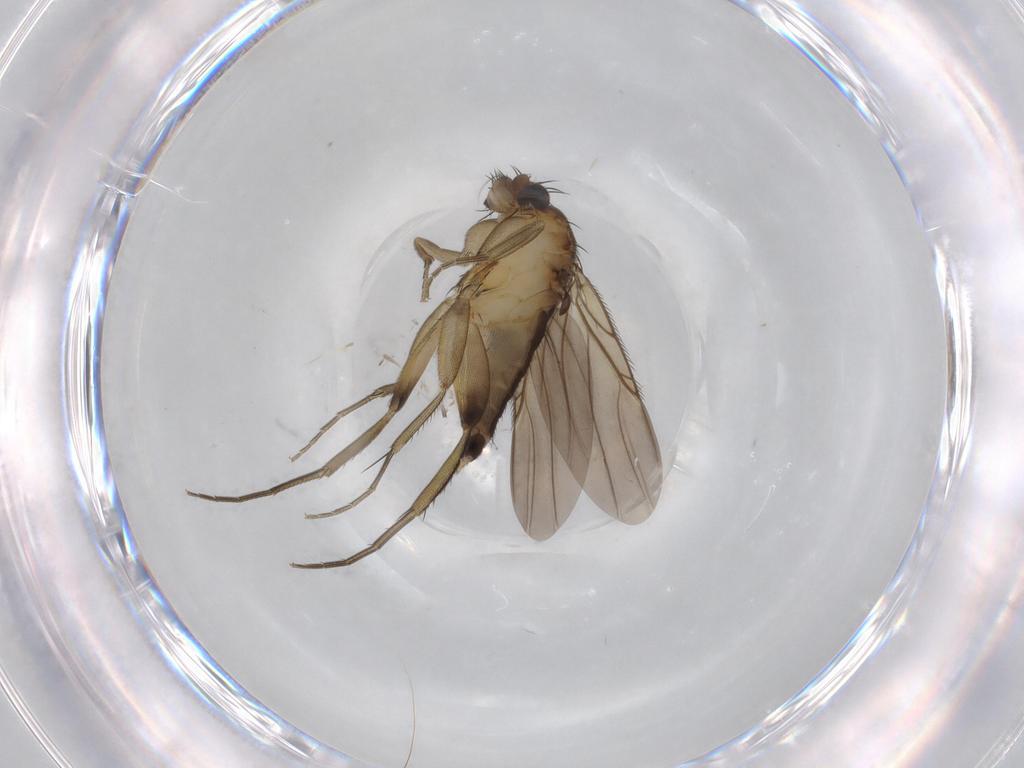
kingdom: Animalia
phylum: Arthropoda
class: Insecta
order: Diptera
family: Phoridae
